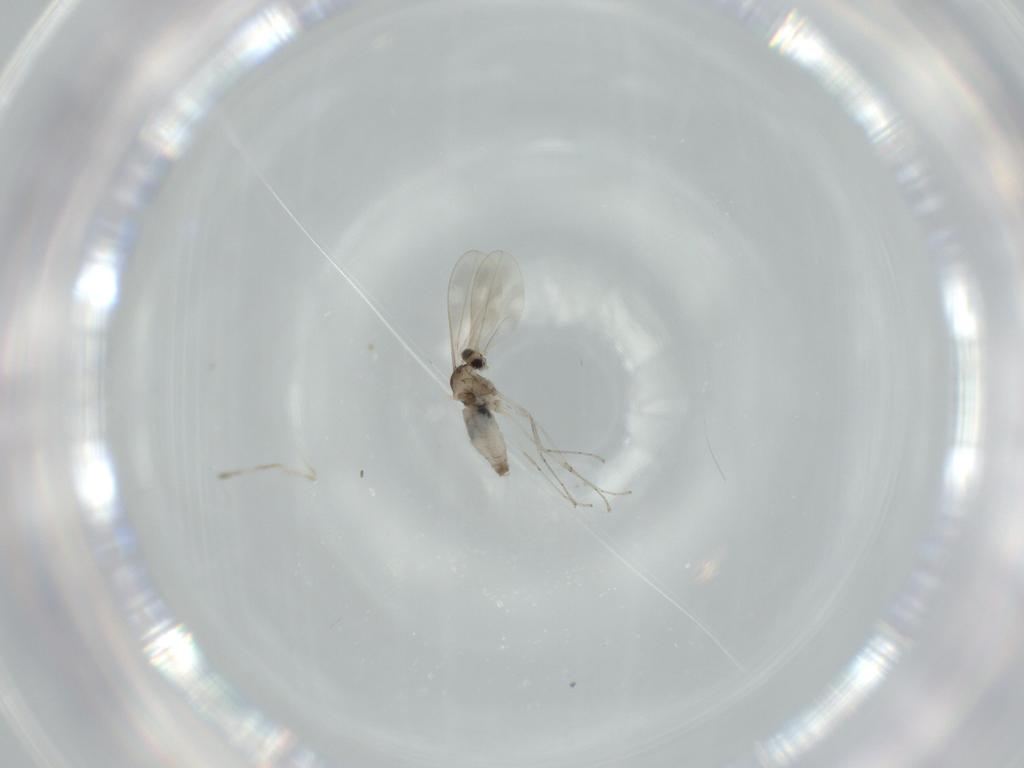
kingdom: Animalia
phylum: Arthropoda
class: Insecta
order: Diptera
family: Cecidomyiidae
